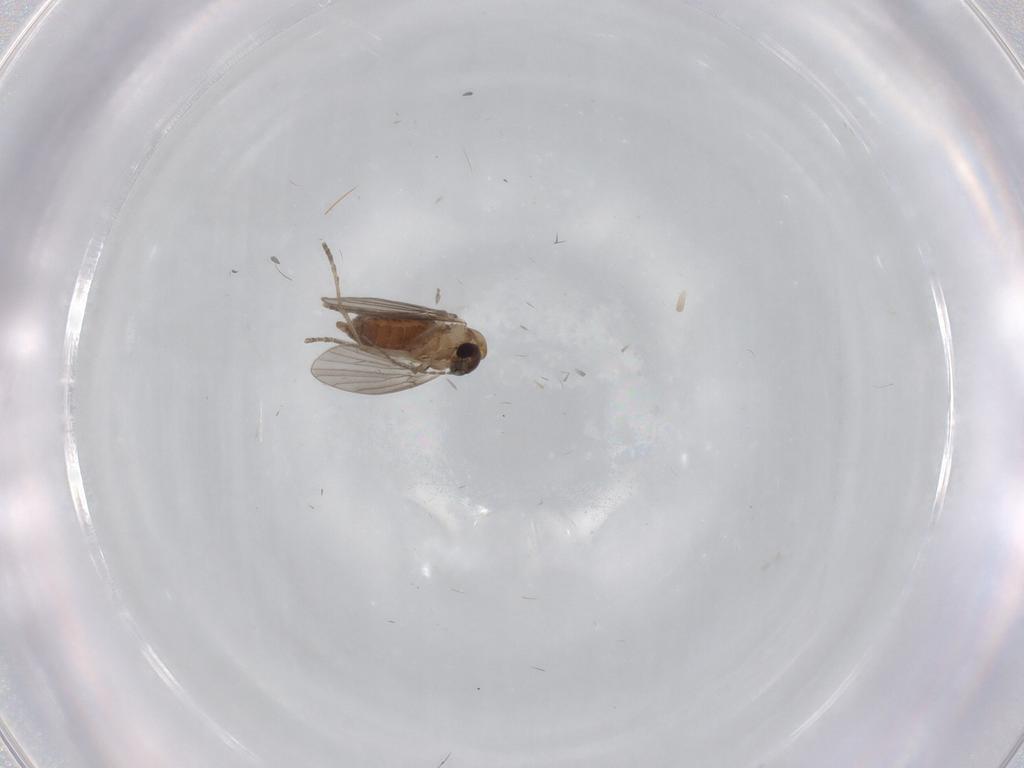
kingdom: Animalia
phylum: Arthropoda
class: Insecta
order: Diptera
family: Psychodidae
